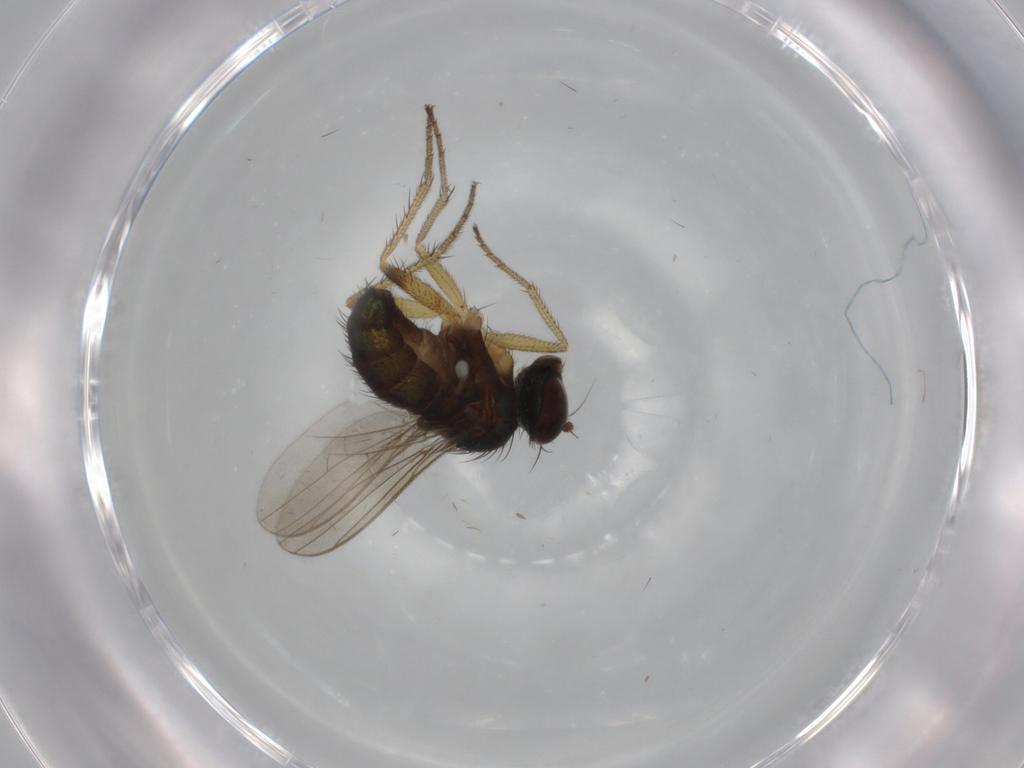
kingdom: Animalia
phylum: Arthropoda
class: Insecta
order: Diptera
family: Dolichopodidae
